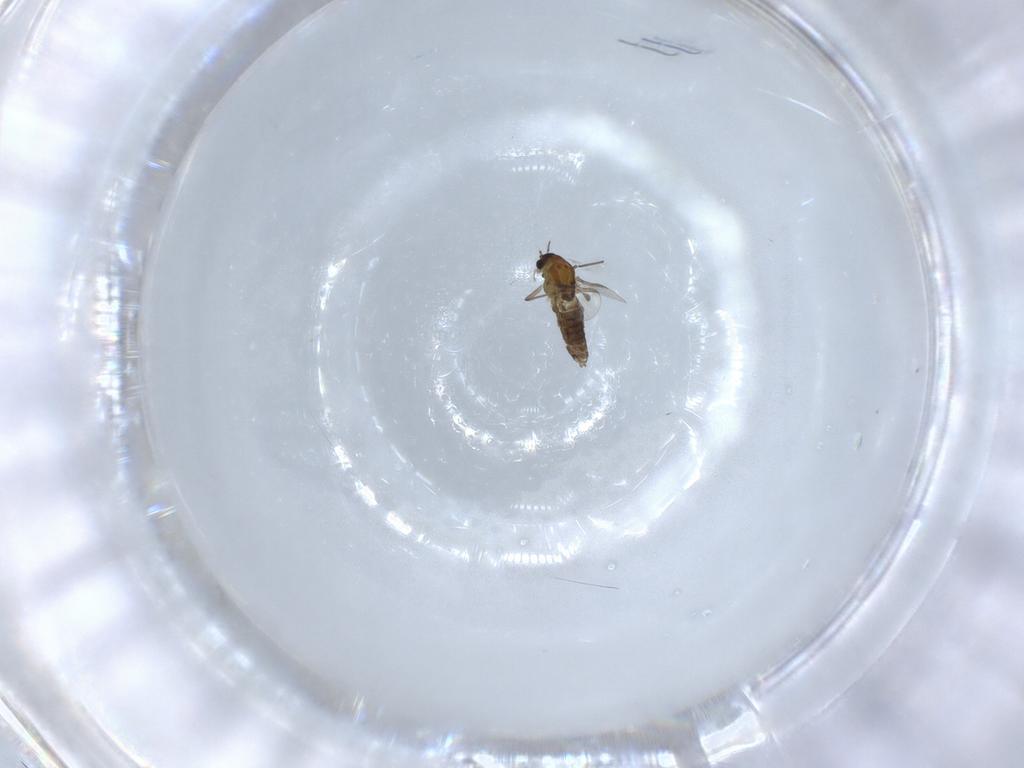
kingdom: Animalia
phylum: Arthropoda
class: Insecta
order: Diptera
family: Chironomidae
